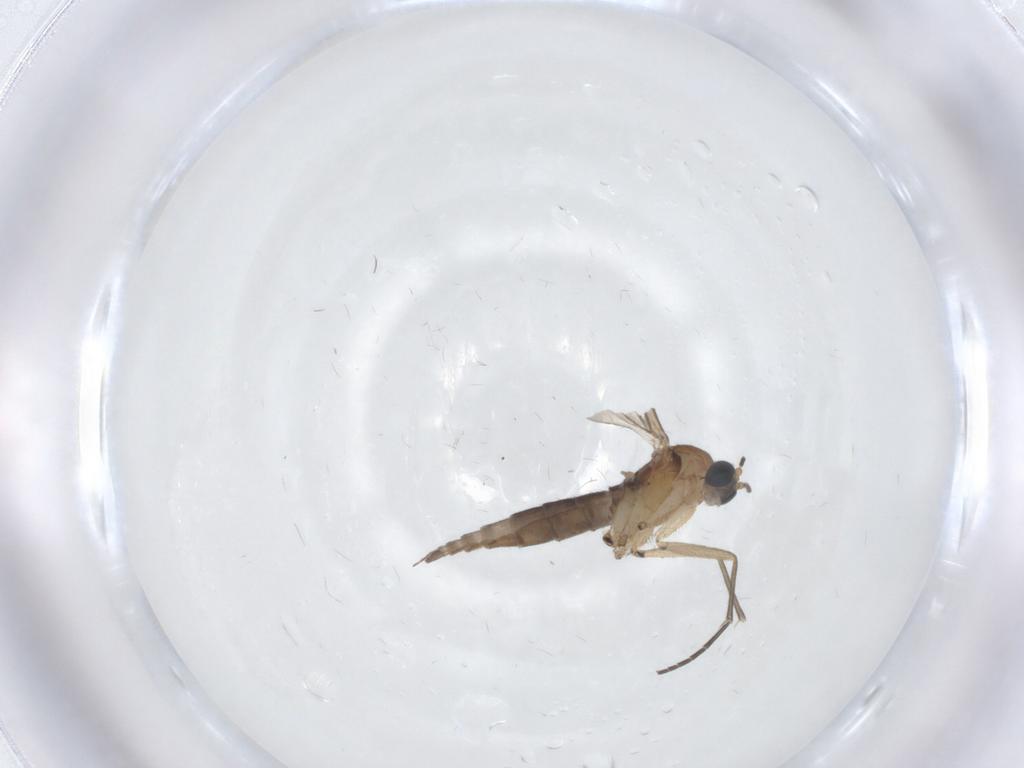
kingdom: Animalia
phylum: Arthropoda
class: Insecta
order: Diptera
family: Sciaridae
